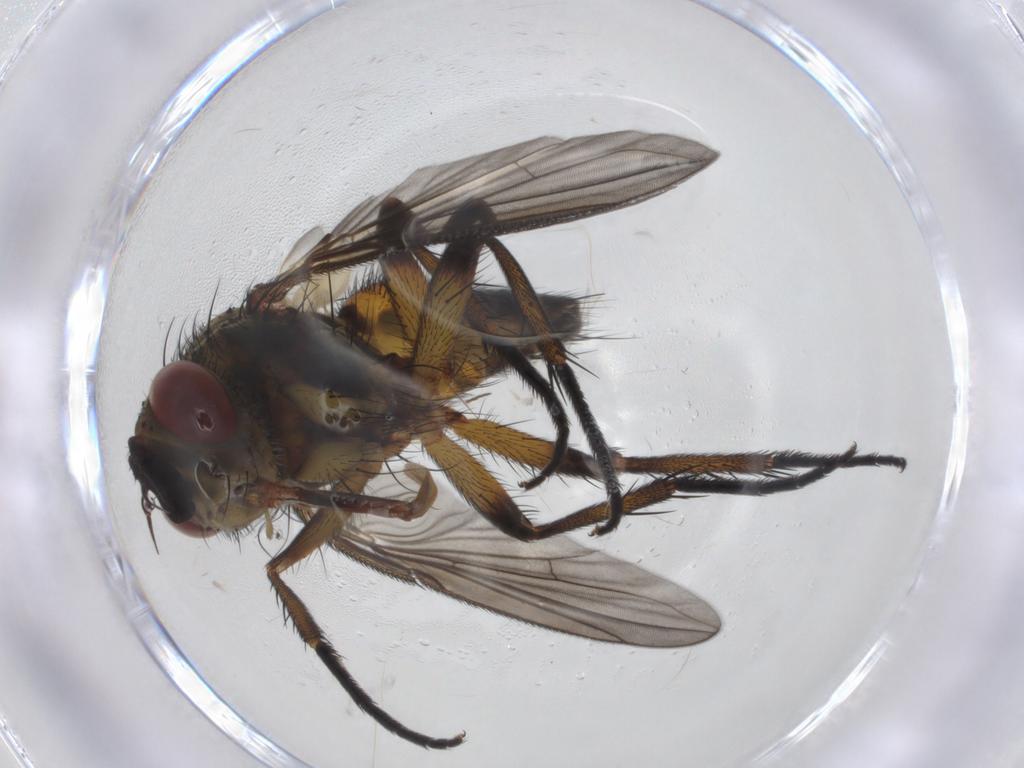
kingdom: Animalia
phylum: Arthropoda
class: Insecta
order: Diptera
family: Tachinidae
